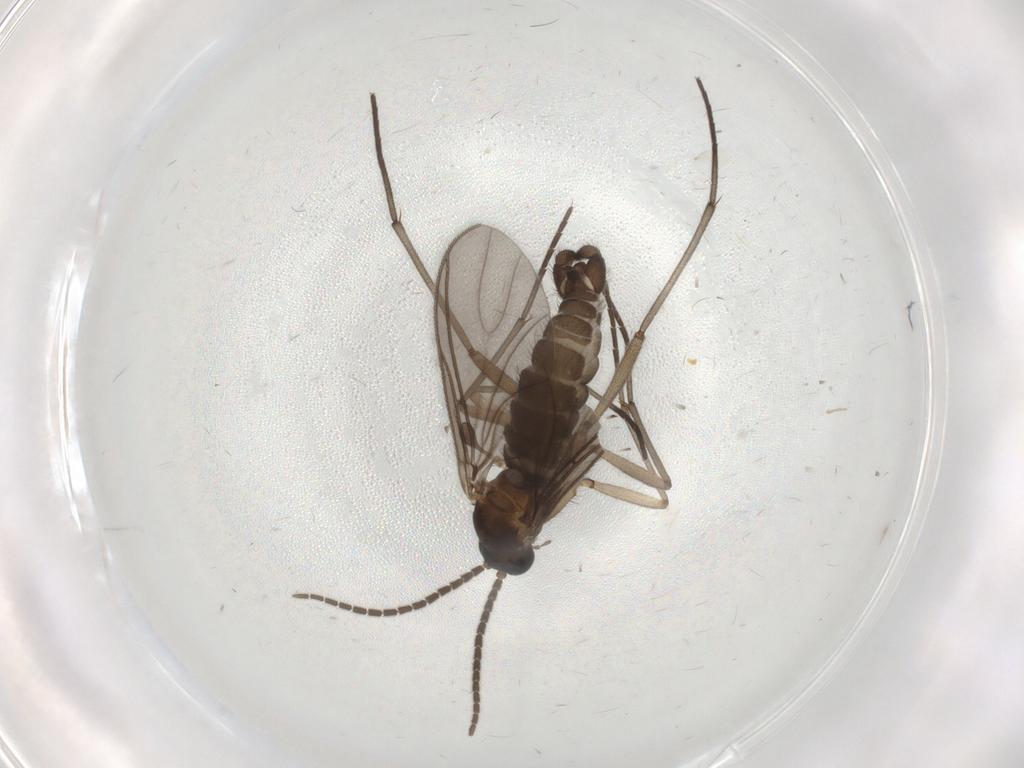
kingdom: Animalia
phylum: Arthropoda
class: Insecta
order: Diptera
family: Sciaridae
